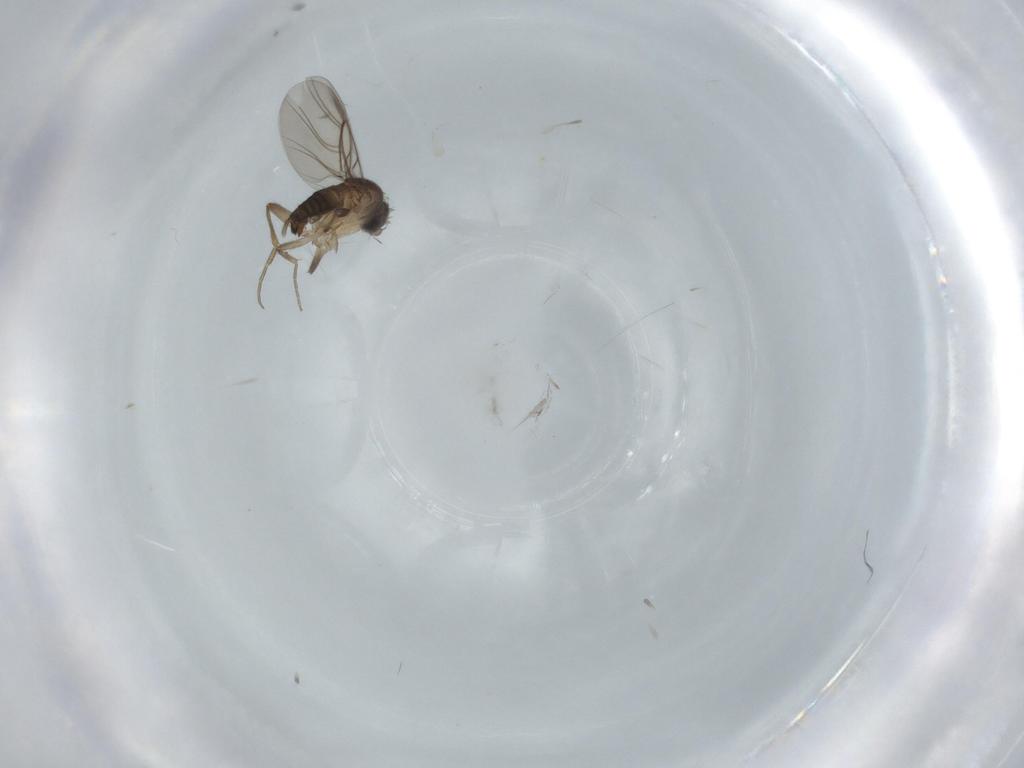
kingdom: Animalia
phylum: Arthropoda
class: Insecta
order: Diptera
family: Phoridae
